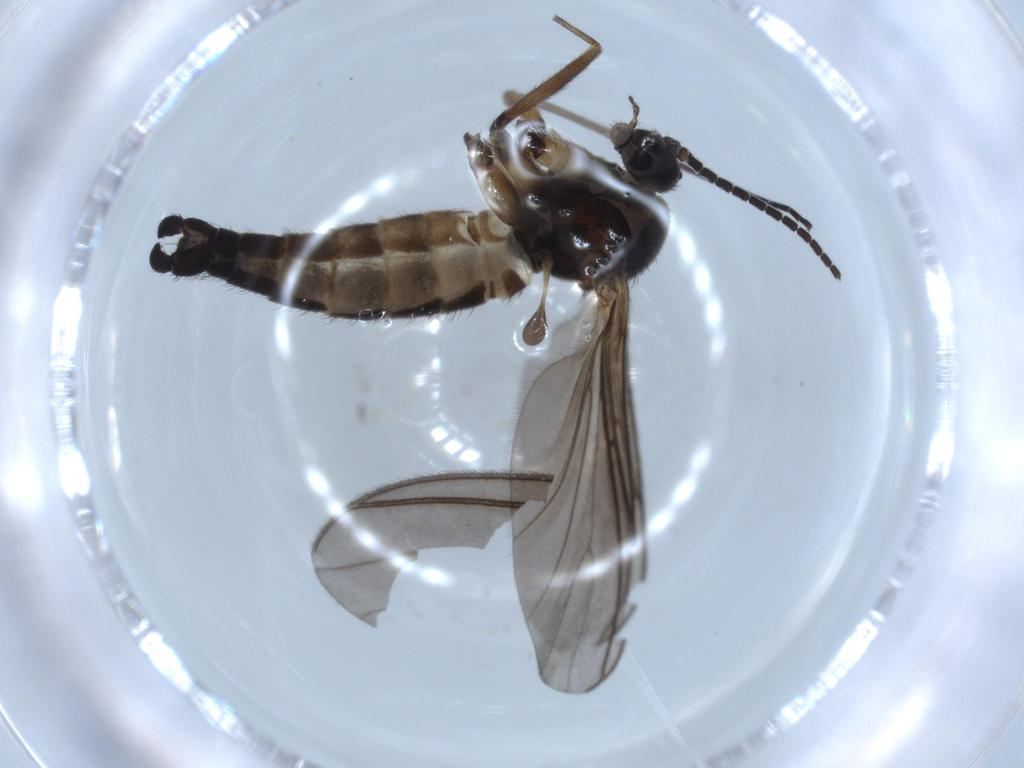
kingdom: Animalia
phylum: Arthropoda
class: Insecta
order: Diptera
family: Sciaridae
